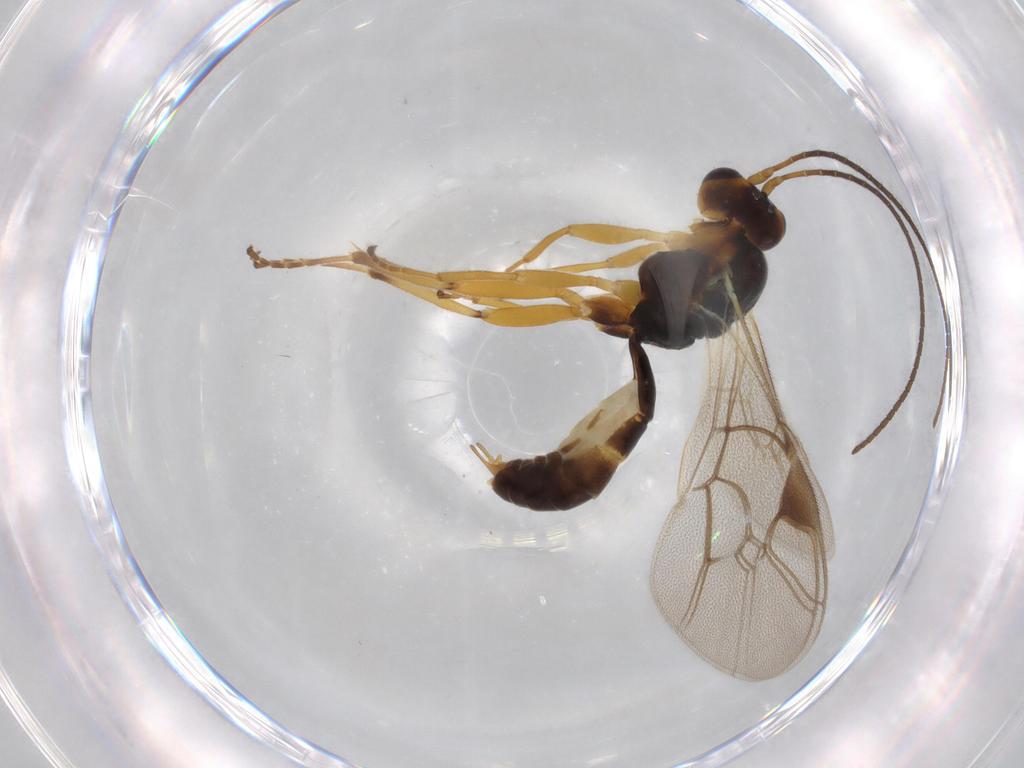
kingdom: Animalia
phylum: Arthropoda
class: Insecta
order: Hymenoptera
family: Ichneumonidae
